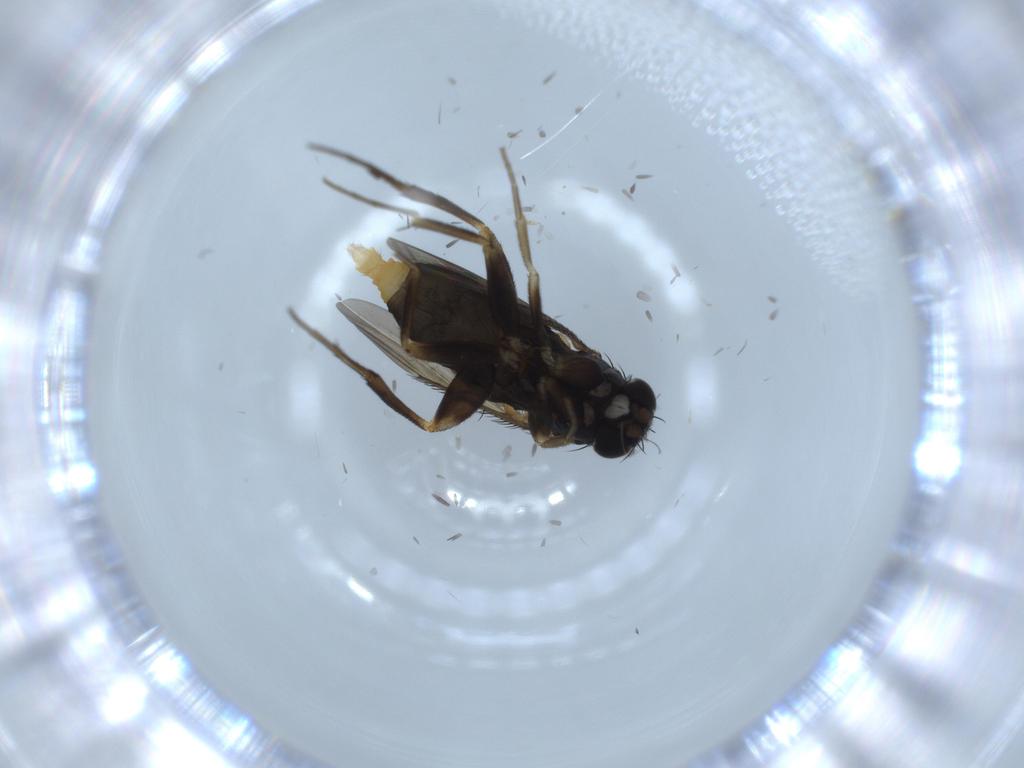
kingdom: Animalia
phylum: Arthropoda
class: Insecta
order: Diptera
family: Phoridae
